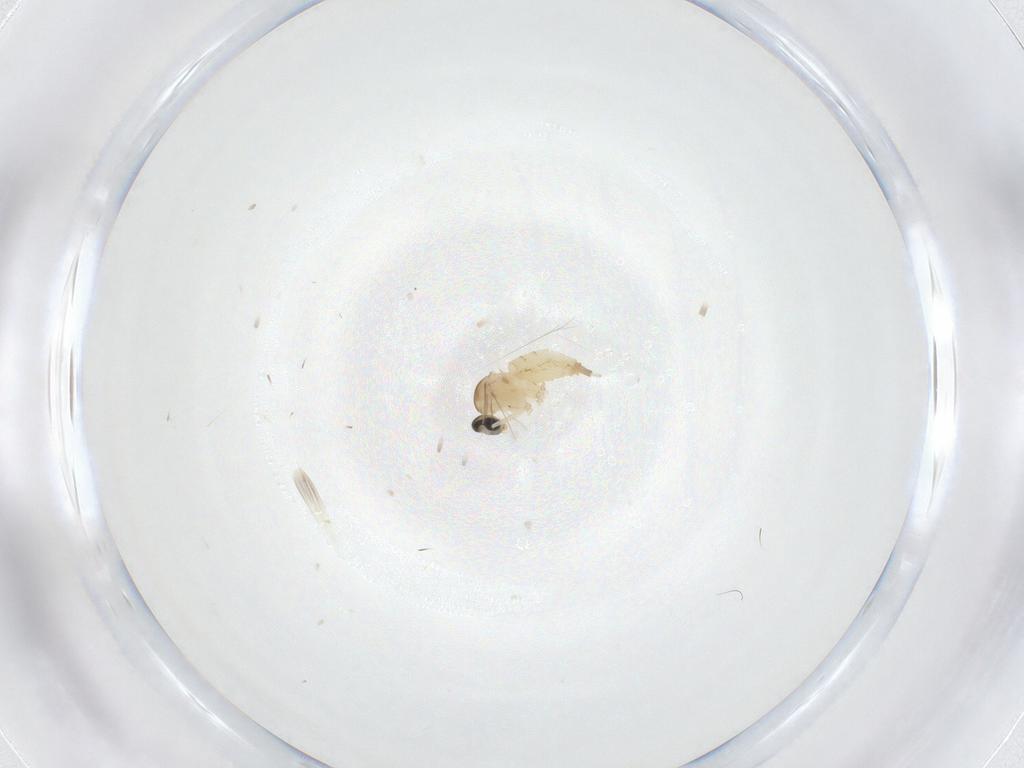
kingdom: Animalia
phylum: Arthropoda
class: Insecta
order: Diptera
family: Cecidomyiidae
